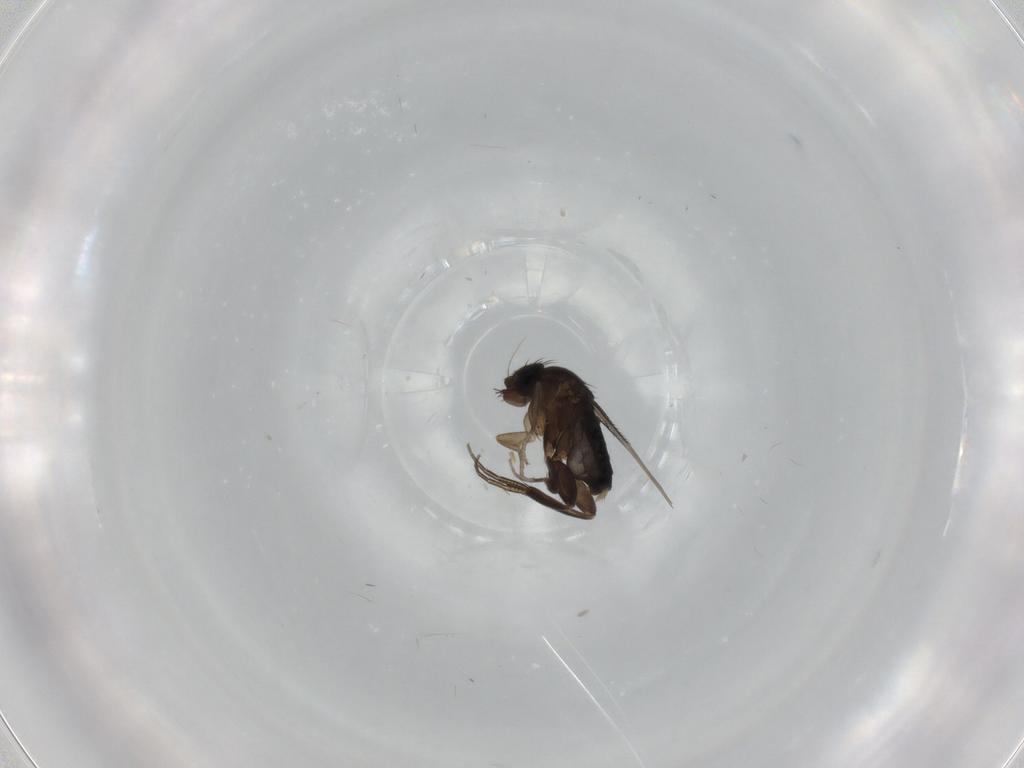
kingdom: Animalia
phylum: Arthropoda
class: Insecta
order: Diptera
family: Phoridae
